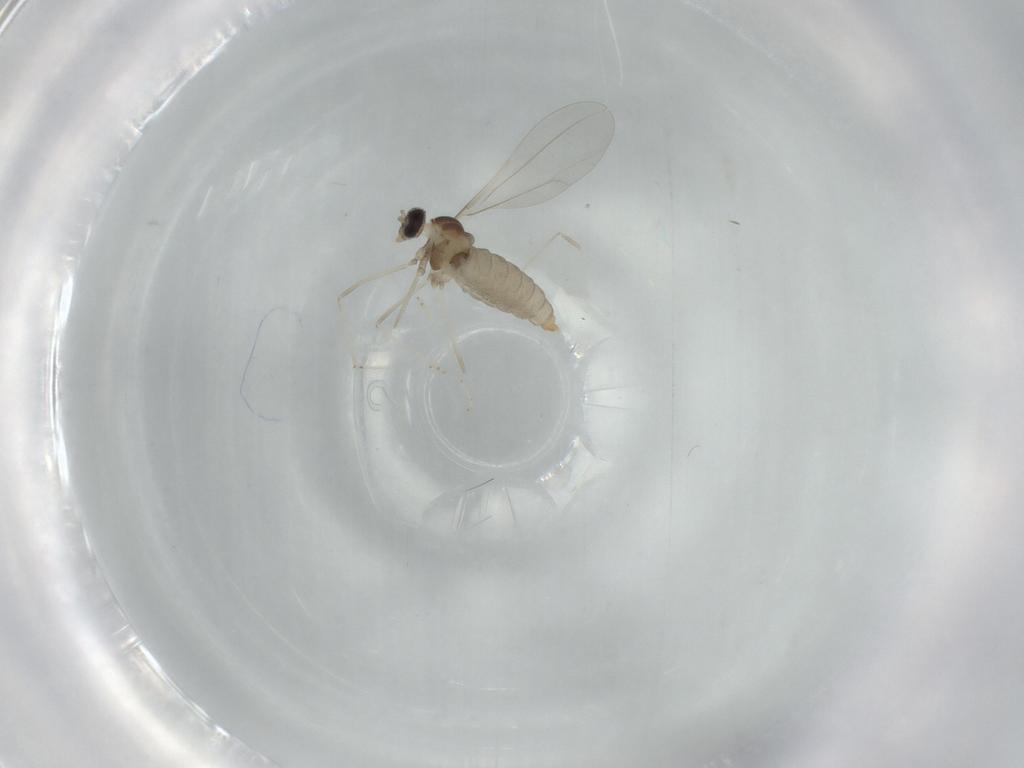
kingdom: Animalia
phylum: Arthropoda
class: Insecta
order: Diptera
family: Cecidomyiidae
